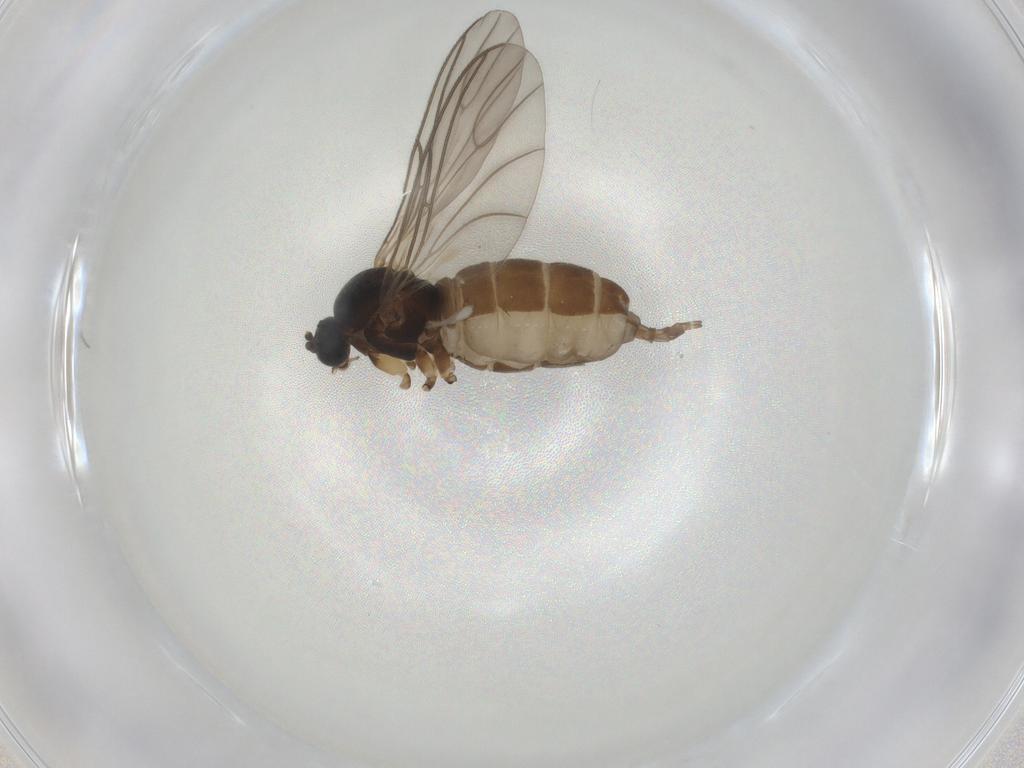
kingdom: Animalia
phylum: Arthropoda
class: Insecta
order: Diptera
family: Sciaridae
